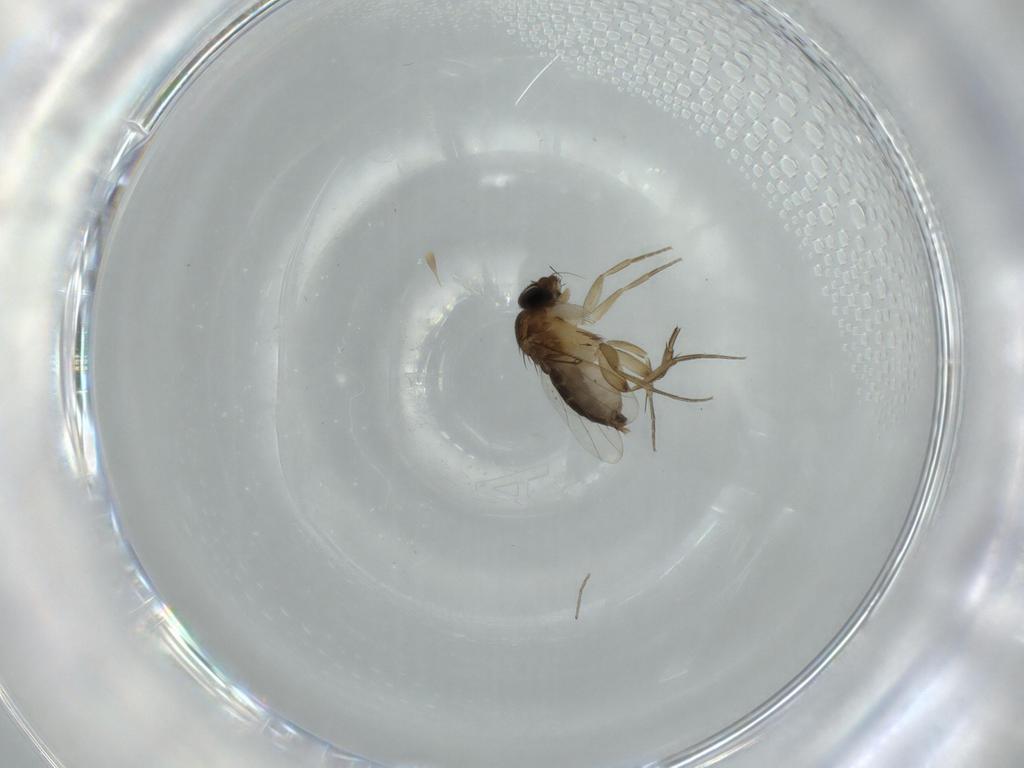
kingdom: Animalia
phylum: Arthropoda
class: Insecta
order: Diptera
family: Phoridae
